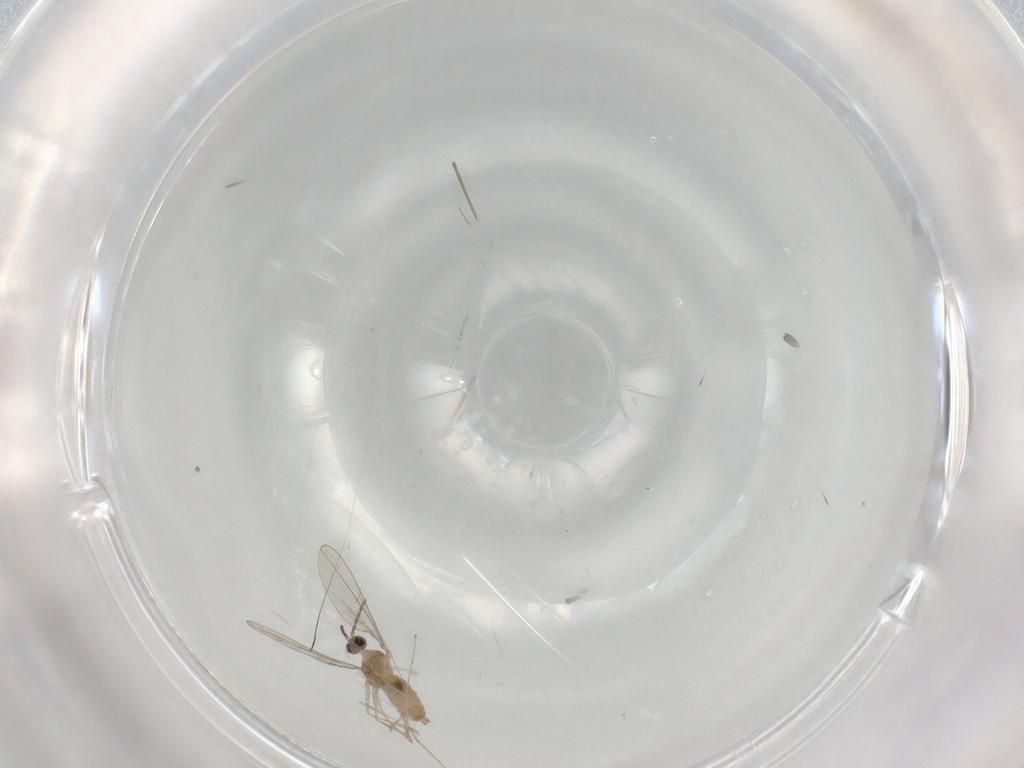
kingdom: Animalia
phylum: Arthropoda
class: Insecta
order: Diptera
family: Cecidomyiidae
